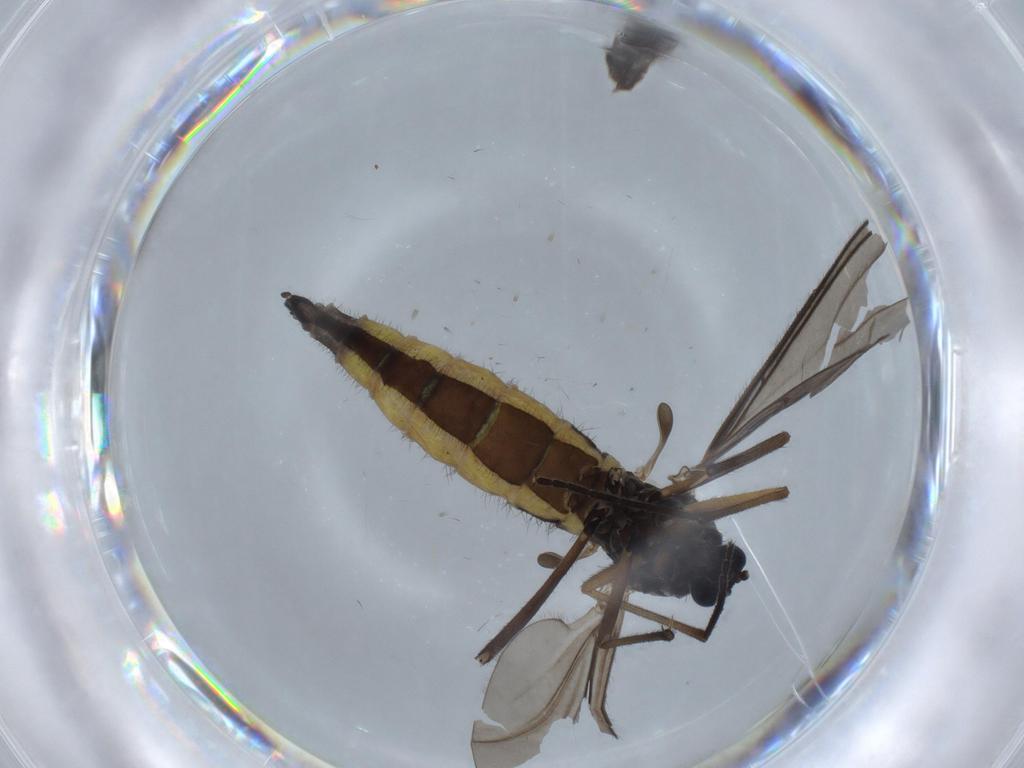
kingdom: Animalia
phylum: Arthropoda
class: Insecta
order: Diptera
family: Sciaridae
